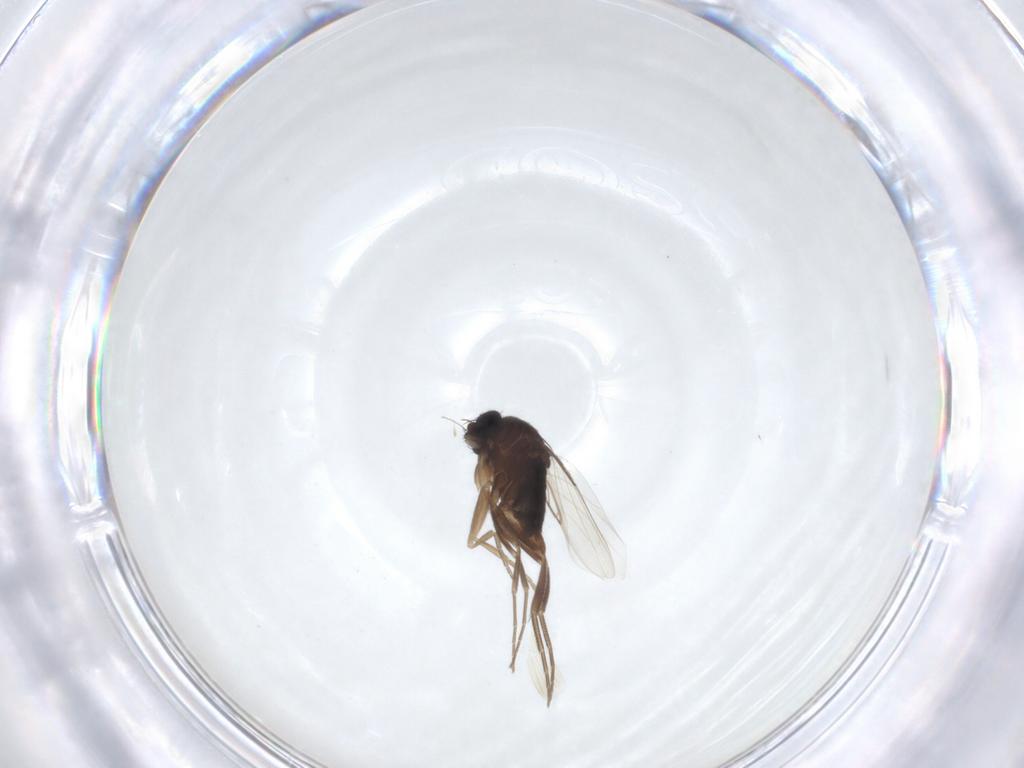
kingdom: Animalia
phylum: Arthropoda
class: Insecta
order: Diptera
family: Phoridae
